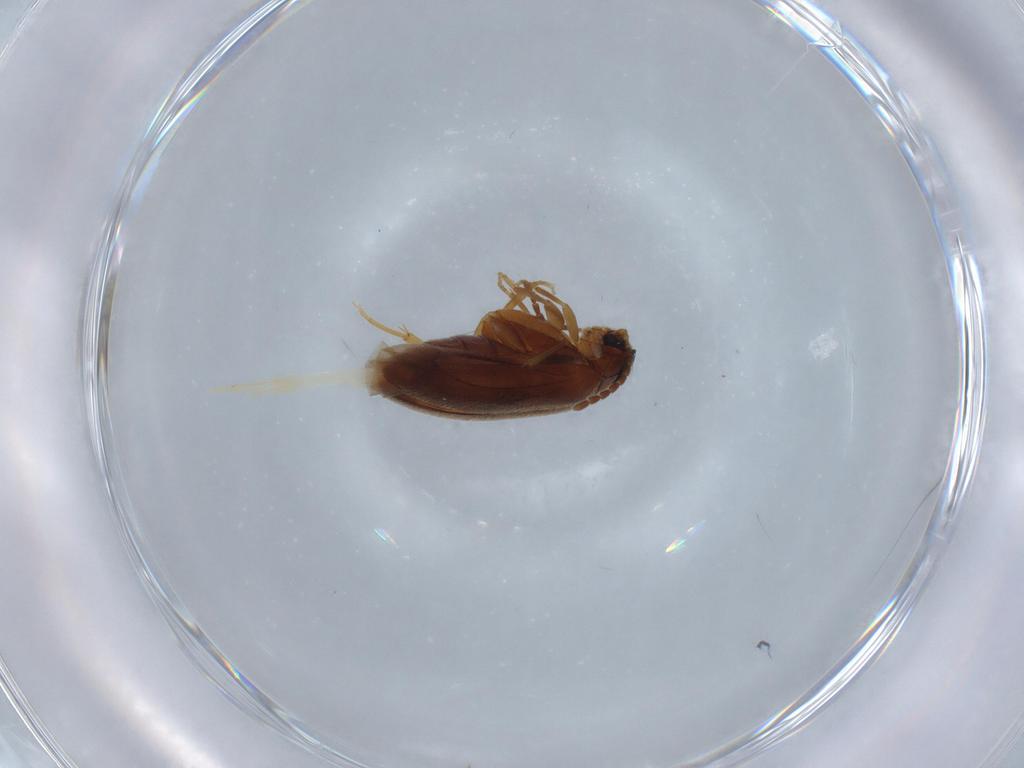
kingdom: Animalia
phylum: Arthropoda
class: Insecta
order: Coleoptera
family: Scraptiidae
